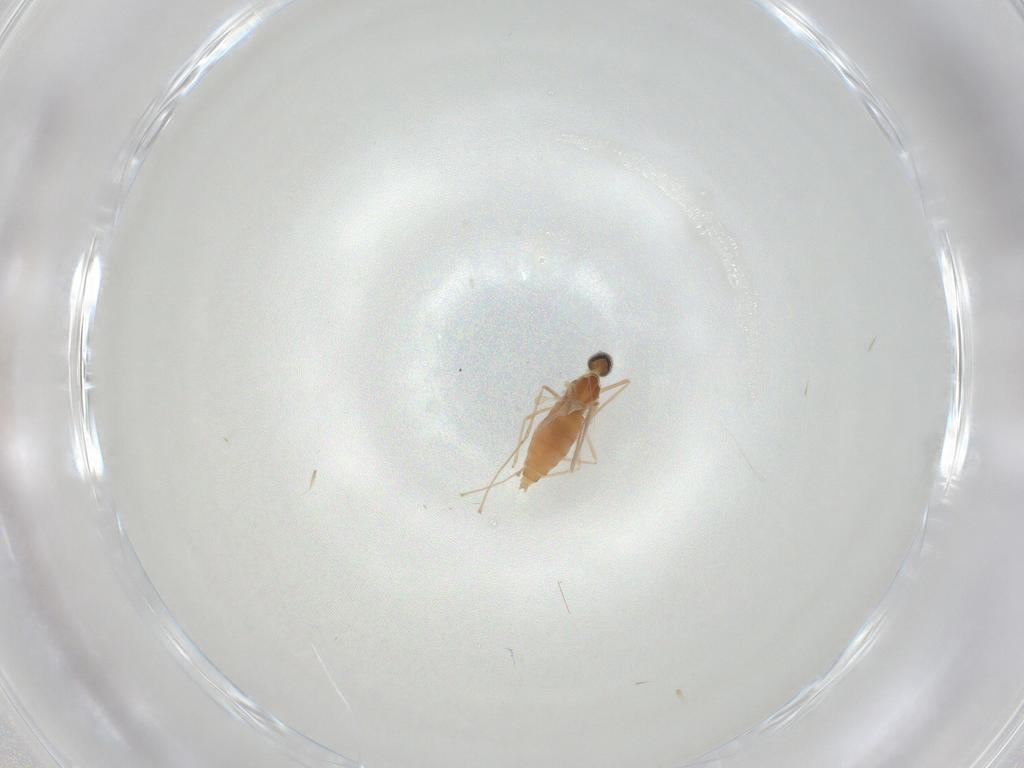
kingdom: Animalia
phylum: Arthropoda
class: Insecta
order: Diptera
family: Cecidomyiidae
